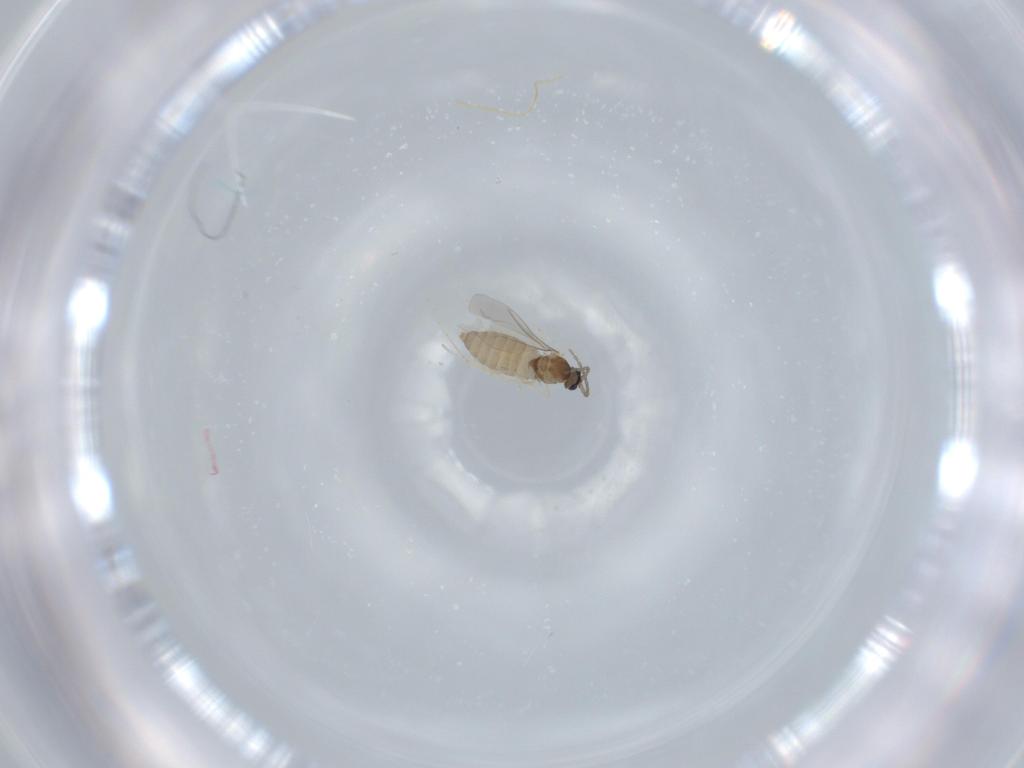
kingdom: Animalia
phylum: Arthropoda
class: Insecta
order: Diptera
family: Cecidomyiidae
